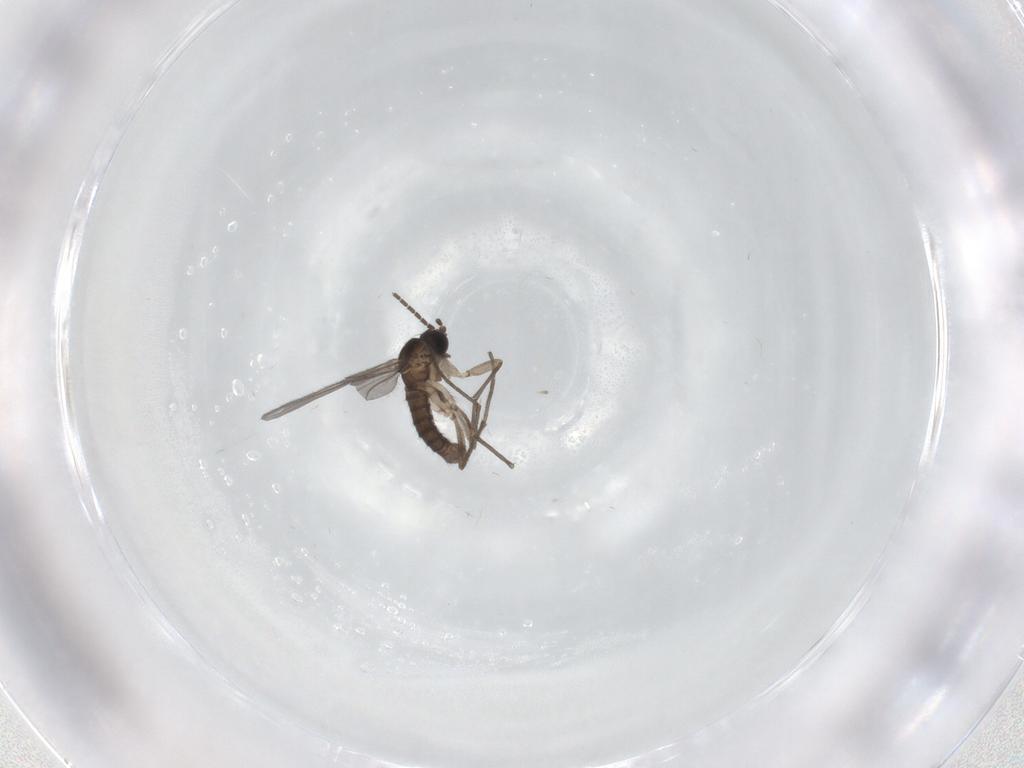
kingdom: Animalia
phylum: Arthropoda
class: Insecta
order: Diptera
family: Sciaridae
